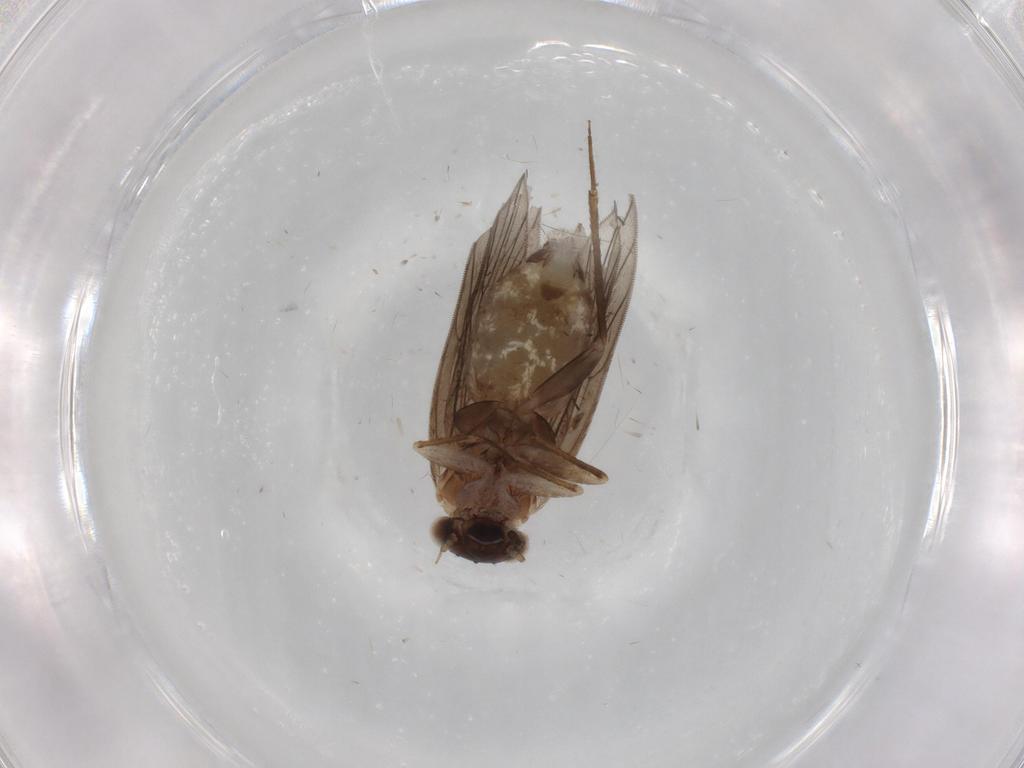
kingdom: Animalia
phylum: Arthropoda
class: Insecta
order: Psocodea
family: Lepidopsocidae
